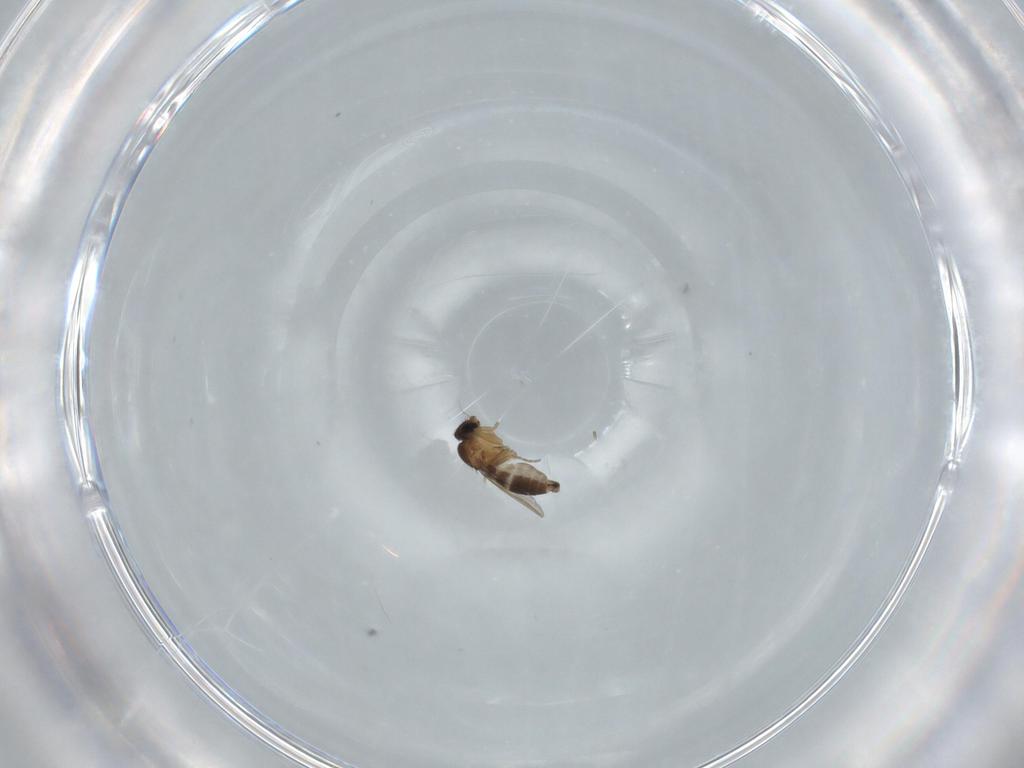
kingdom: Animalia
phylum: Arthropoda
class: Insecta
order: Diptera
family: Phoridae
